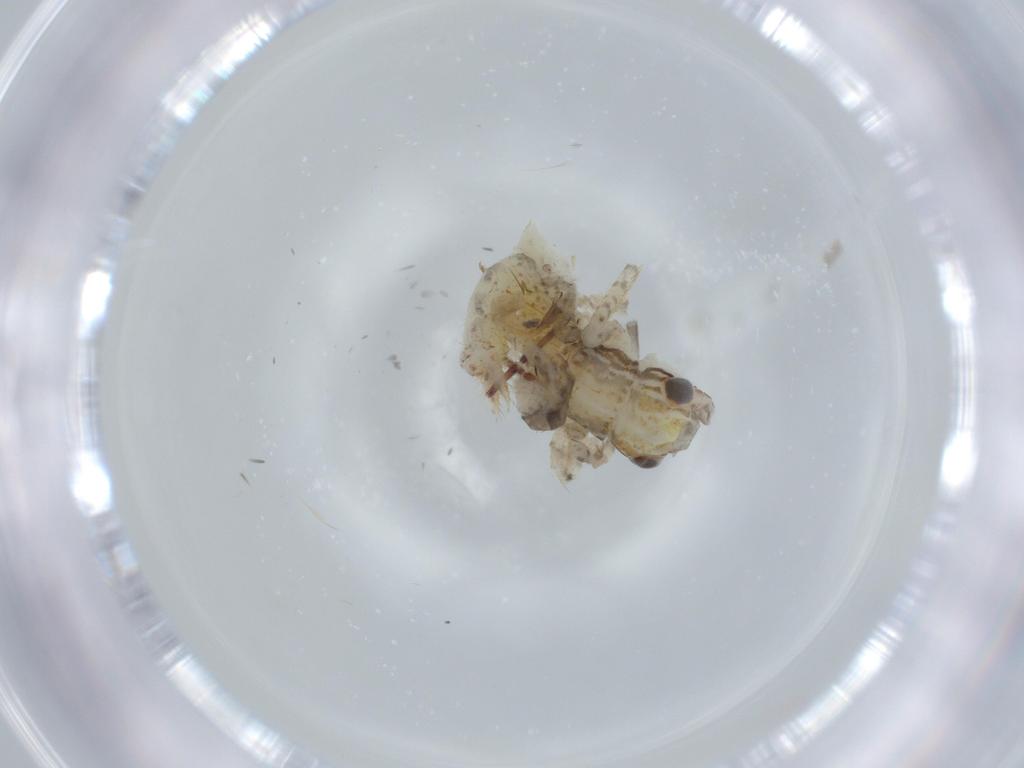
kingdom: Animalia
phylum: Arthropoda
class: Insecta
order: Orthoptera
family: Gryllidae
